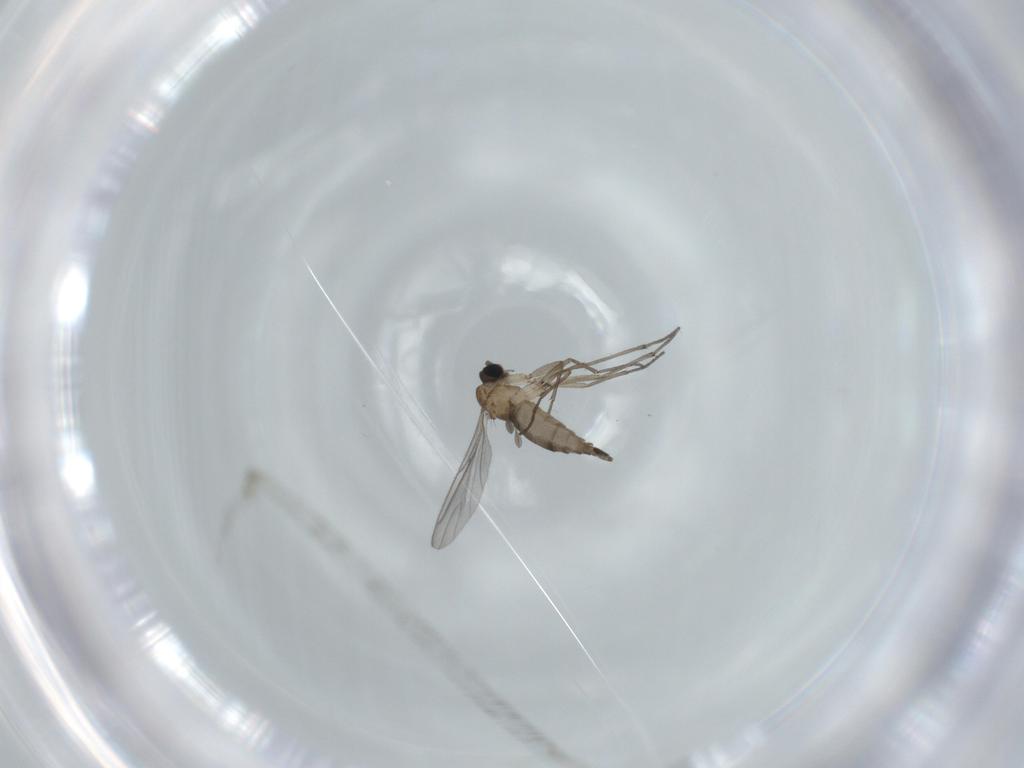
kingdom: Animalia
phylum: Arthropoda
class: Insecta
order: Diptera
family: Sciaridae
